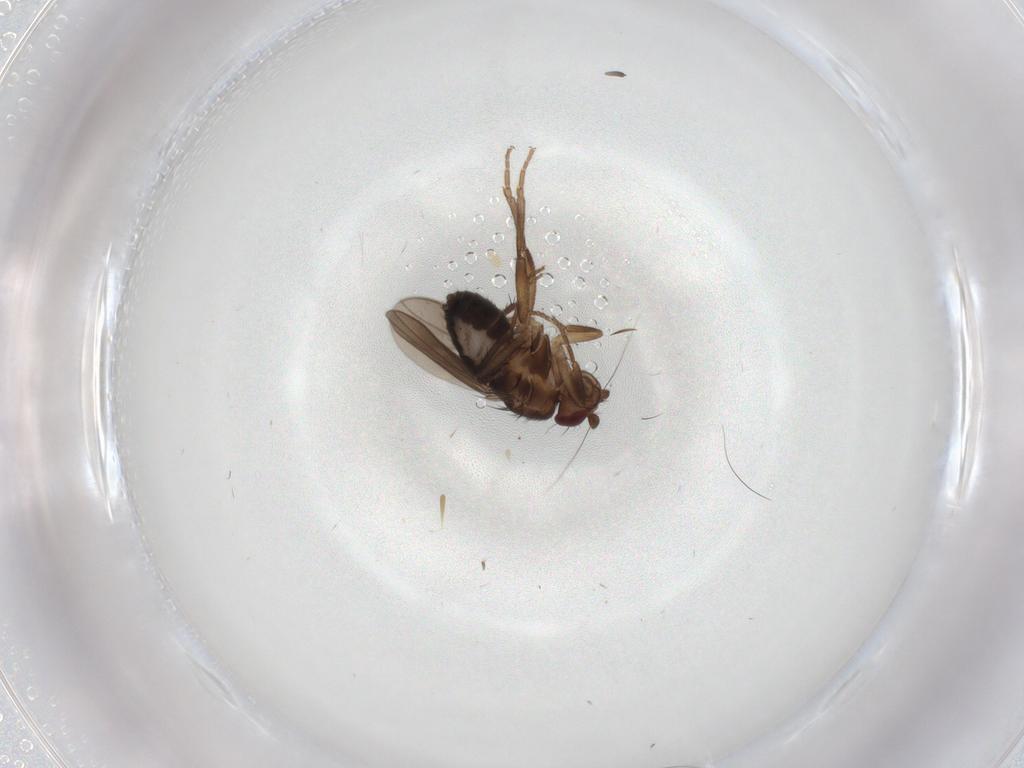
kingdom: Animalia
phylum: Arthropoda
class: Insecta
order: Diptera
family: Sphaeroceridae
